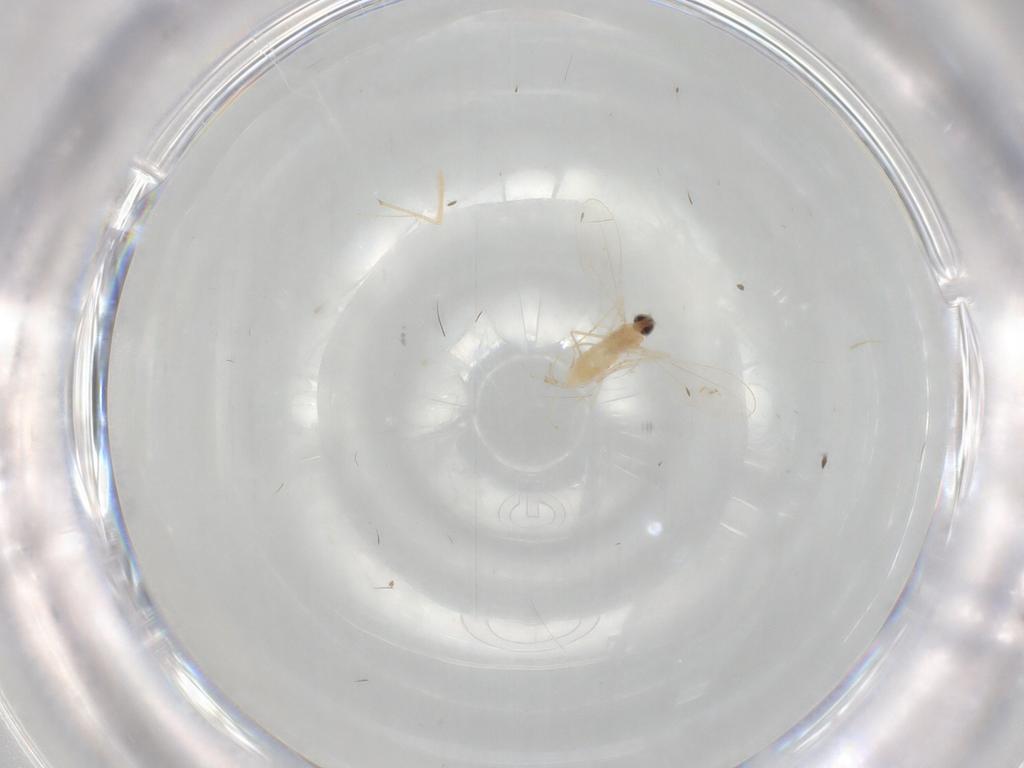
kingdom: Animalia
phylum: Arthropoda
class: Insecta
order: Diptera
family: Cecidomyiidae
